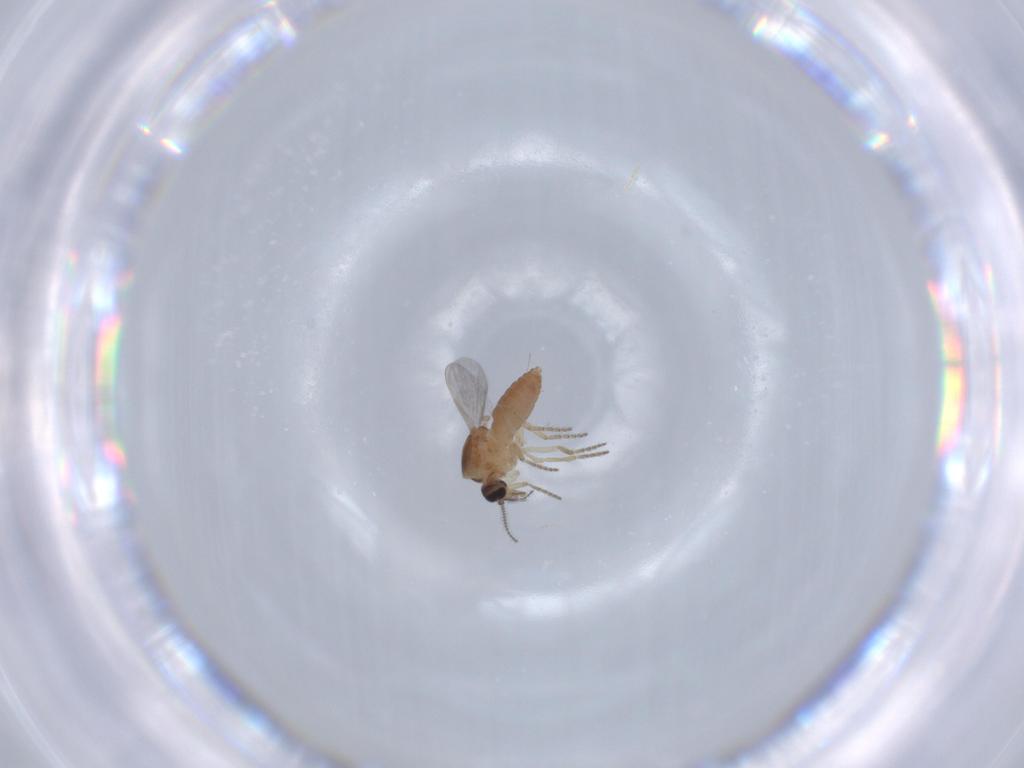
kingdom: Animalia
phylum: Arthropoda
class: Insecta
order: Diptera
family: Ceratopogonidae
